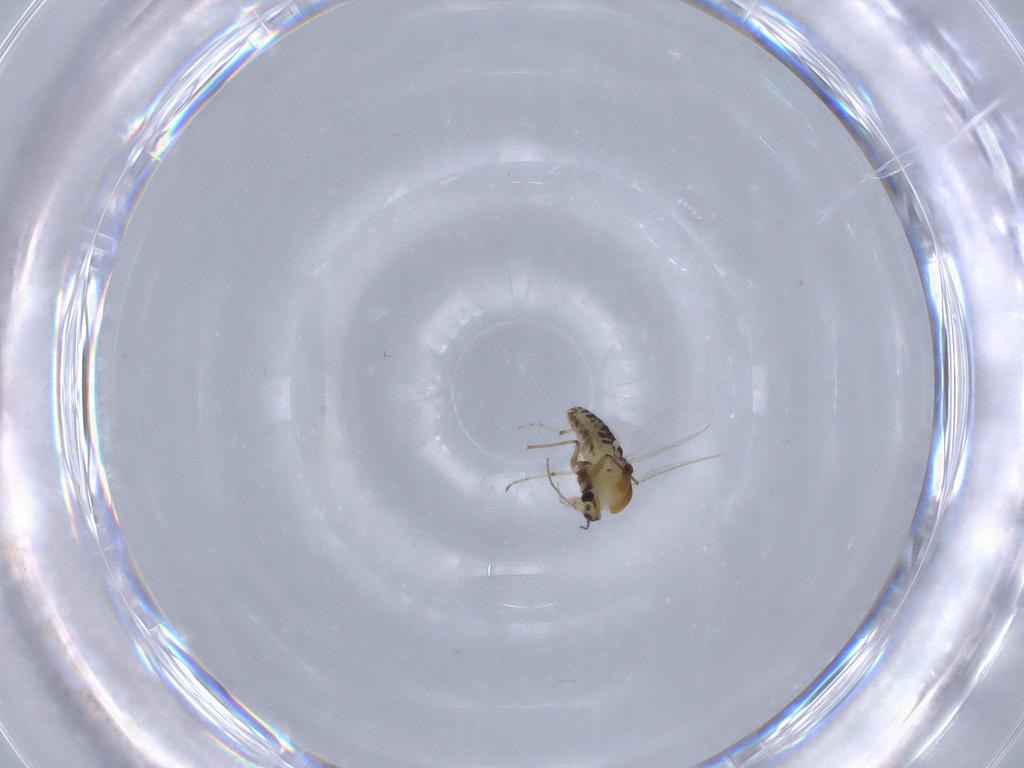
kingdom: Animalia
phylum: Arthropoda
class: Insecta
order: Diptera
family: Chironomidae
